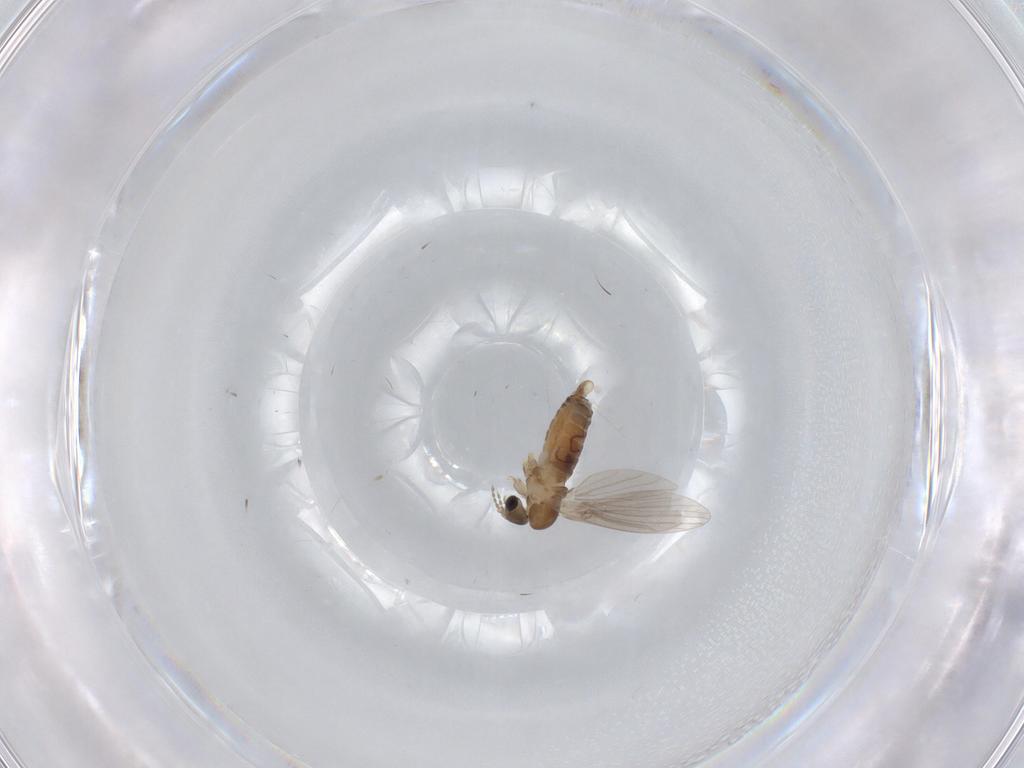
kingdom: Animalia
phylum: Arthropoda
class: Insecta
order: Diptera
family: Psychodidae
